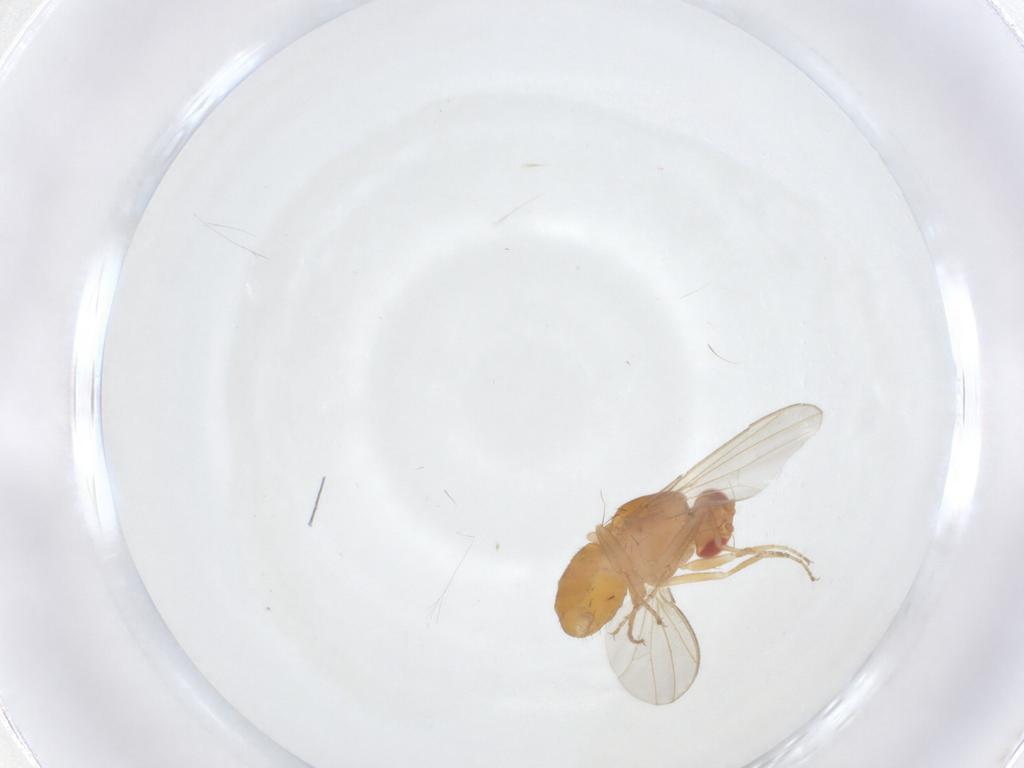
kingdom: Animalia
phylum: Arthropoda
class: Insecta
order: Diptera
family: Drosophilidae
